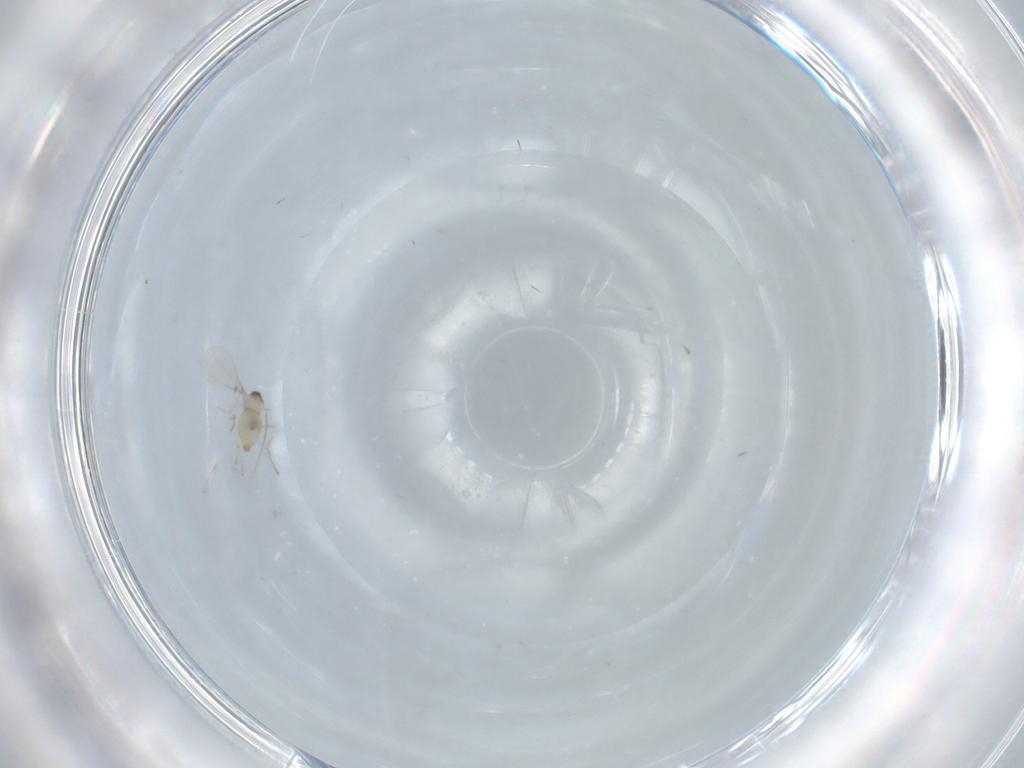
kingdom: Animalia
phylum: Arthropoda
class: Insecta
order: Diptera
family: Cecidomyiidae
